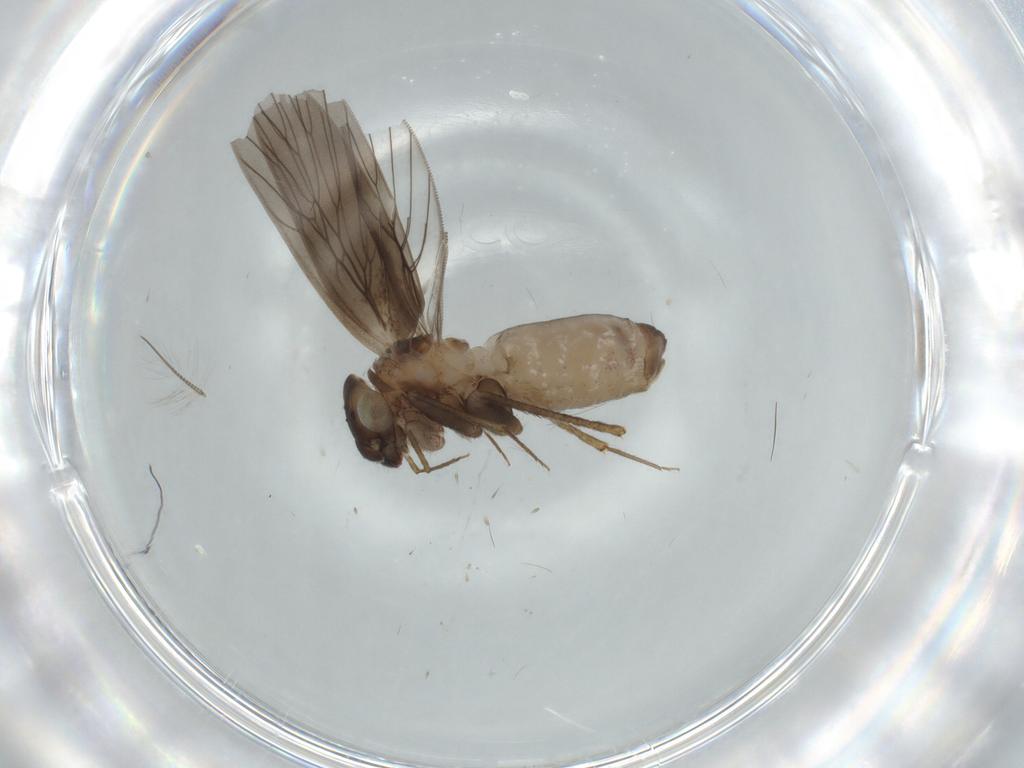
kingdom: Animalia
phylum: Arthropoda
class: Insecta
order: Psocodea
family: Lepidopsocidae
